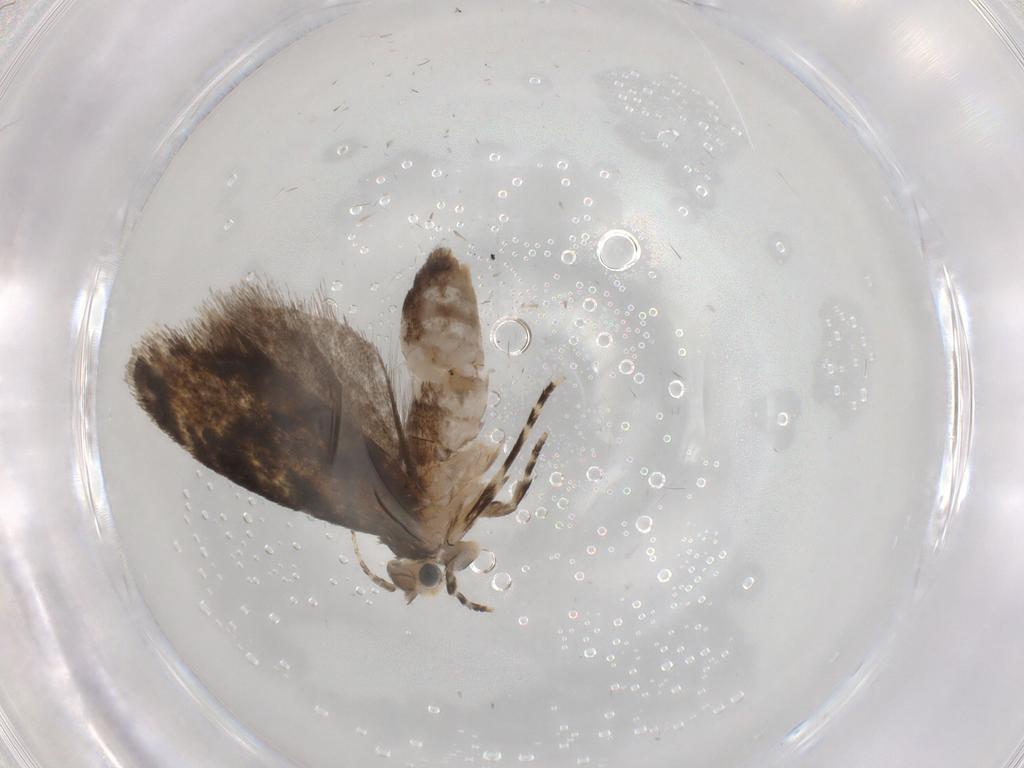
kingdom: Animalia
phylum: Arthropoda
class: Insecta
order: Lepidoptera
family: Tineidae
